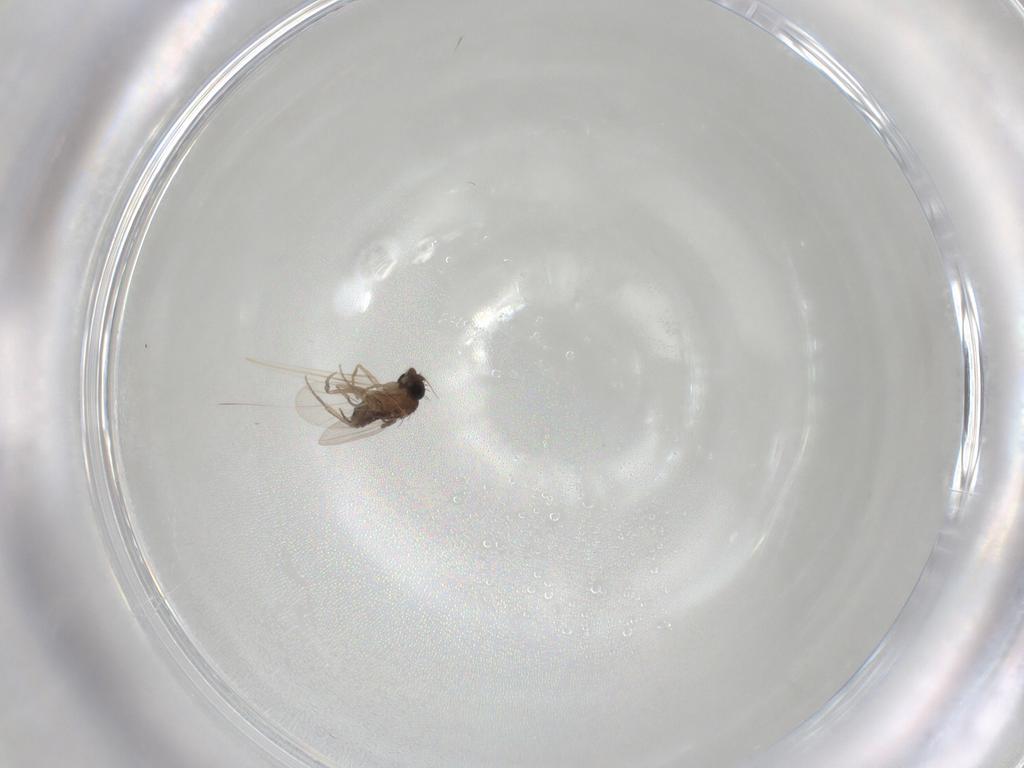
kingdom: Animalia
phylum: Arthropoda
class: Insecta
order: Diptera
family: Phoridae
